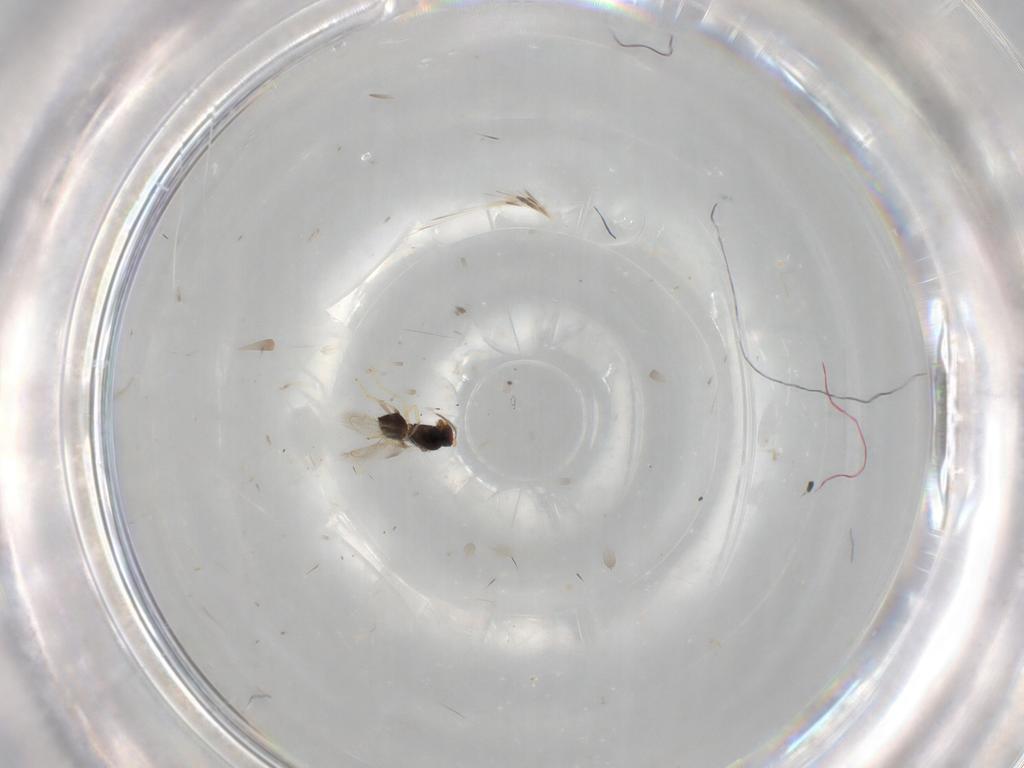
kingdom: Animalia
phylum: Arthropoda
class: Insecta
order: Hymenoptera
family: Eulophidae
